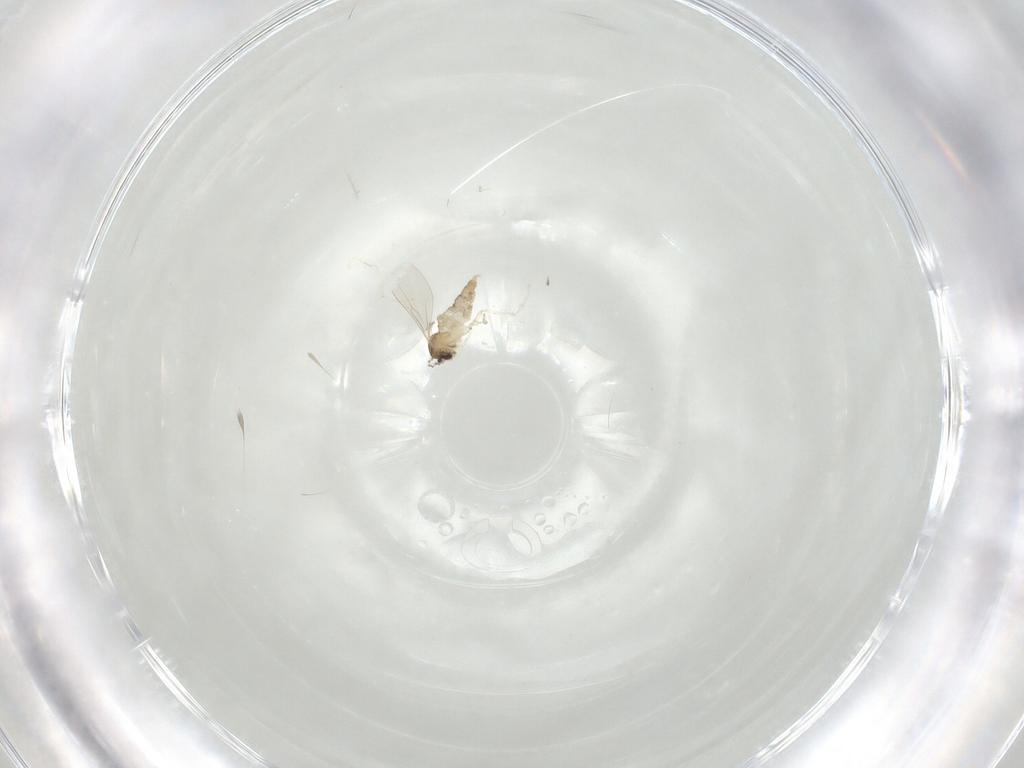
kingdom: Animalia
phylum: Arthropoda
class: Insecta
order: Diptera
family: Cecidomyiidae
